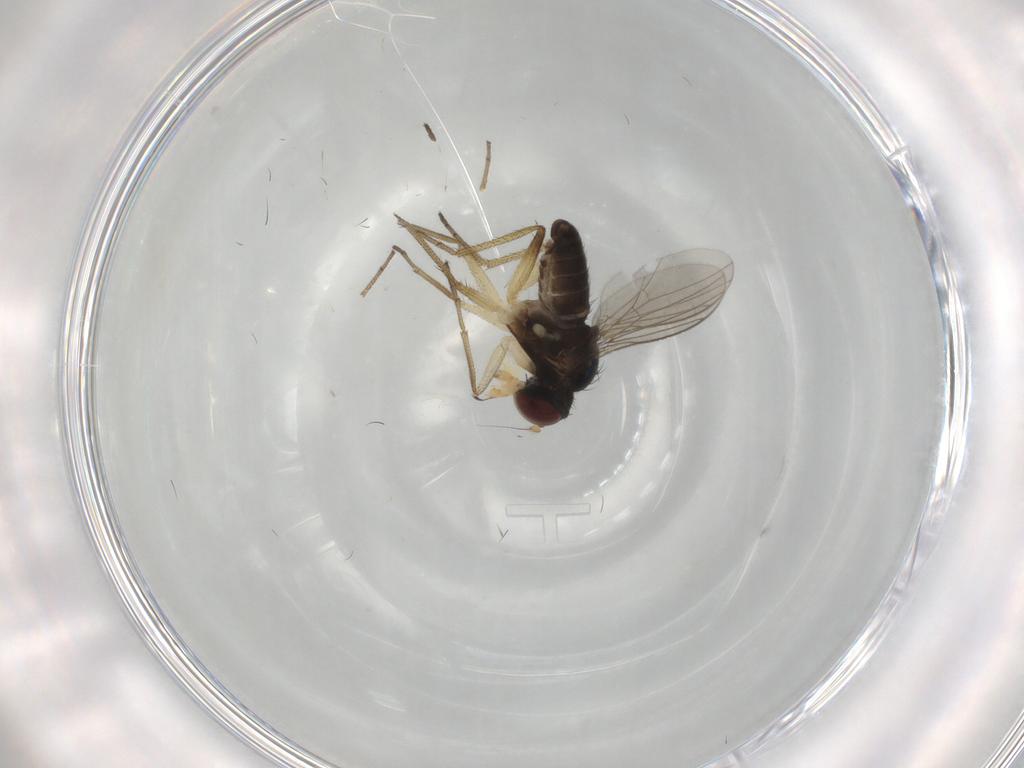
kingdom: Animalia
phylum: Arthropoda
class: Insecta
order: Diptera
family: Dolichopodidae
